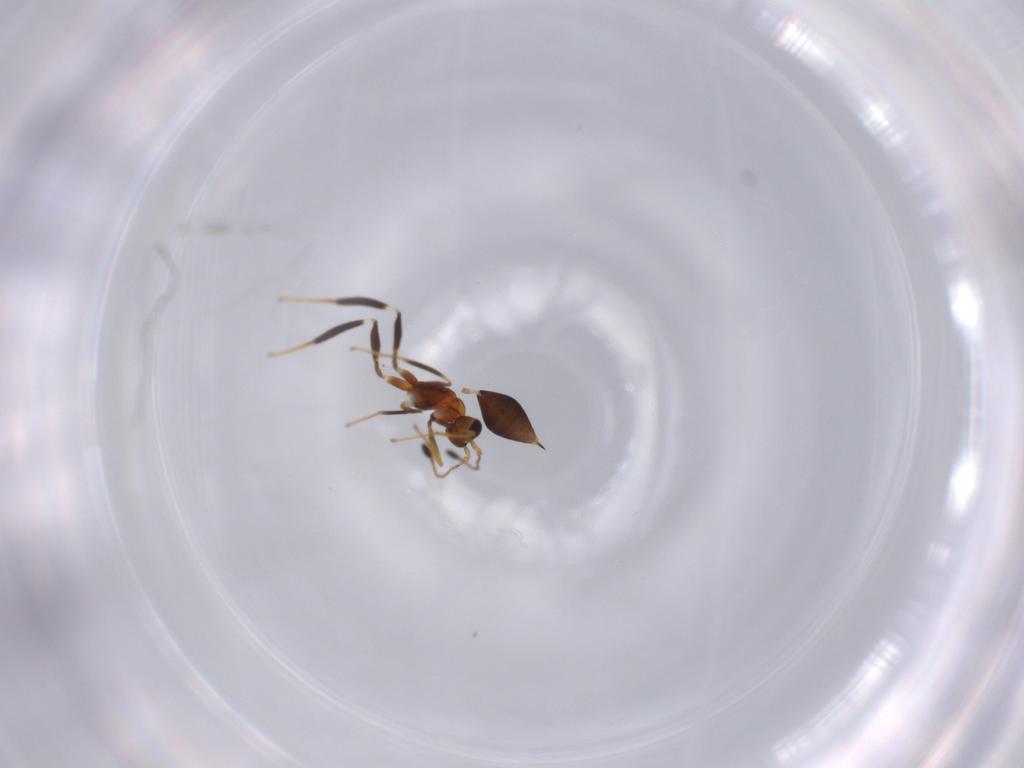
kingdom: Animalia
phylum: Arthropoda
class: Insecta
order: Hymenoptera
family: Mymaridae
